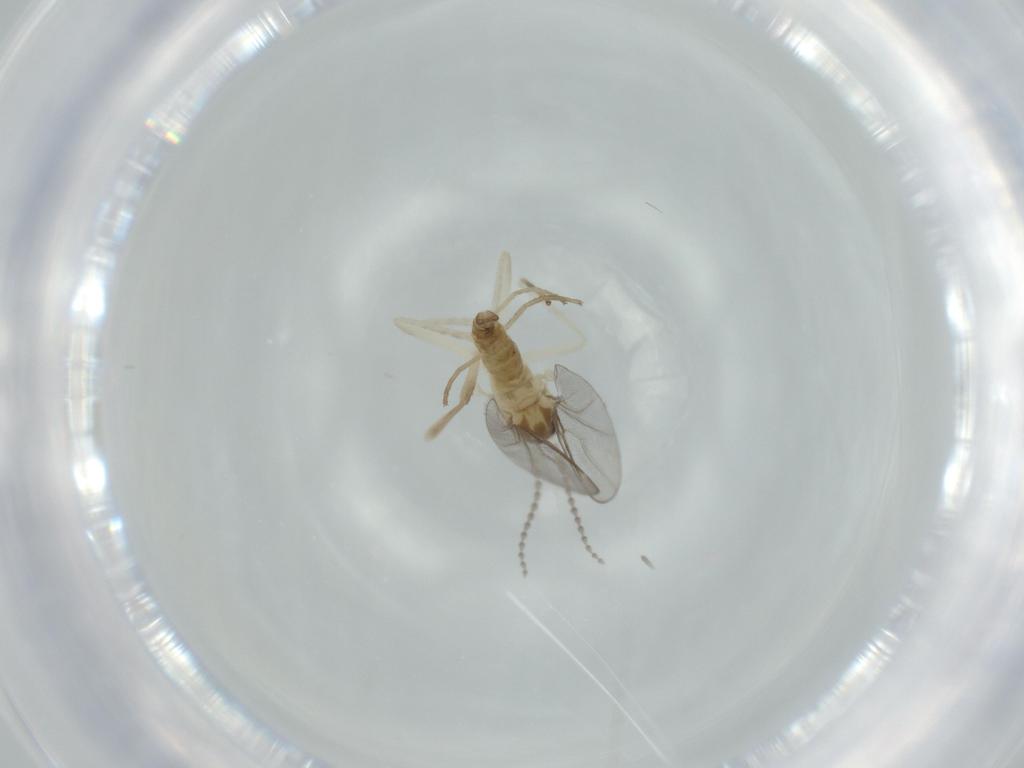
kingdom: Animalia
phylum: Arthropoda
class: Insecta
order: Diptera
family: Cecidomyiidae
